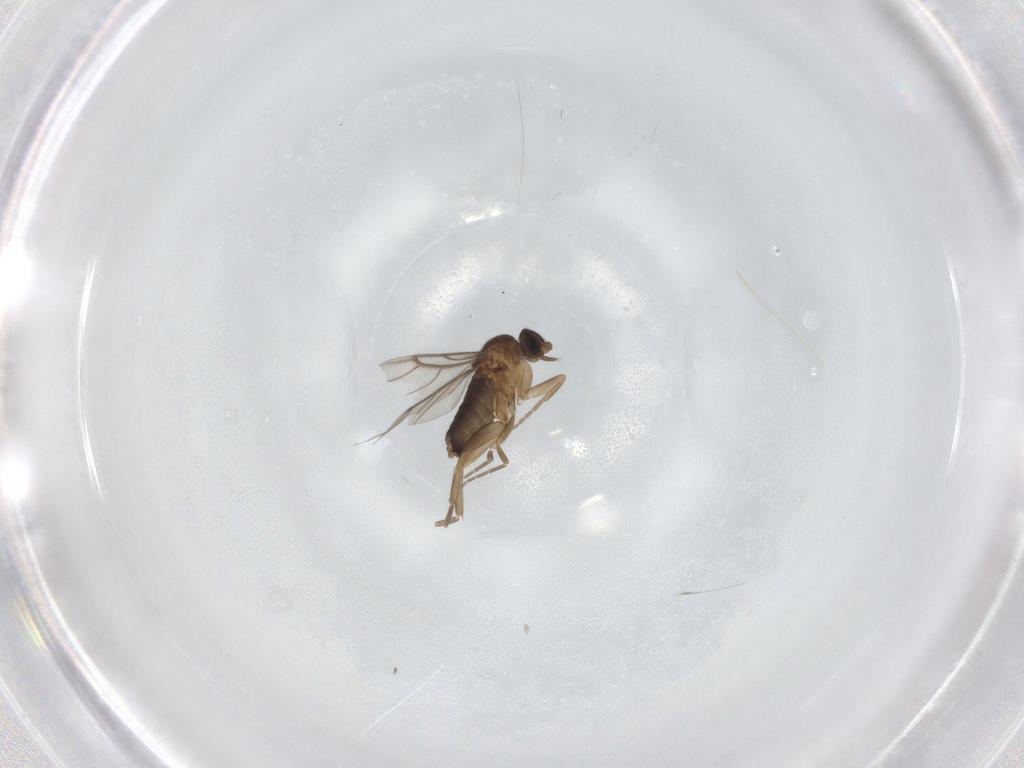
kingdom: Animalia
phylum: Arthropoda
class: Insecta
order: Diptera
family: Phoridae
